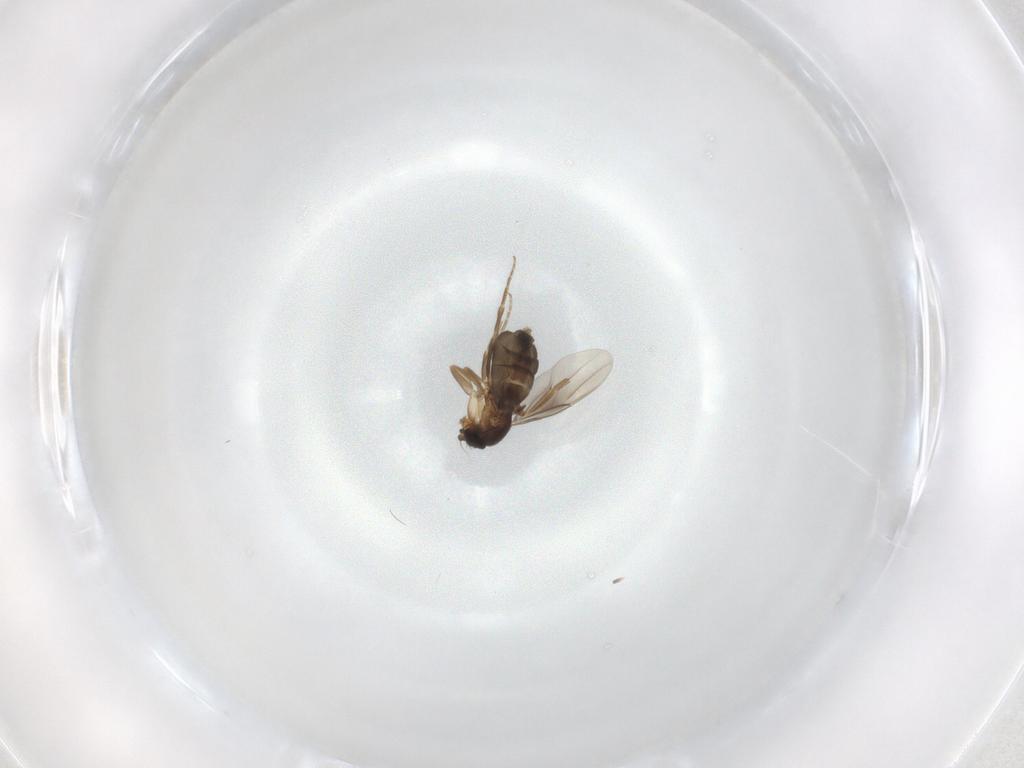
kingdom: Animalia
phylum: Arthropoda
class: Insecta
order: Diptera
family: Phoridae
